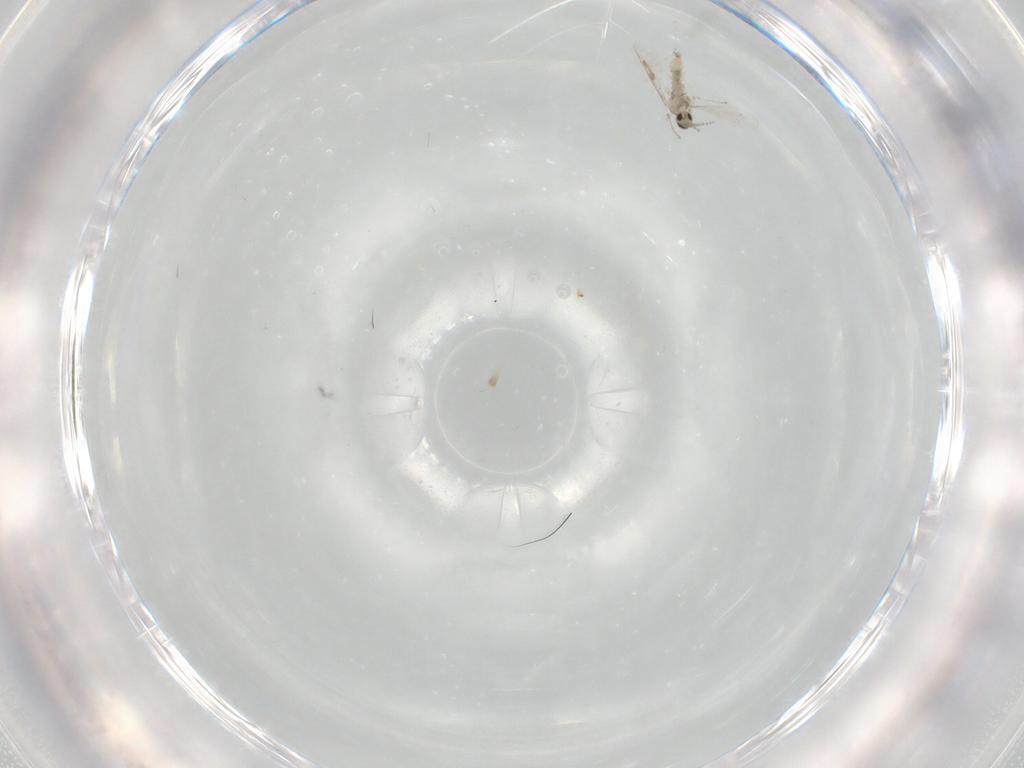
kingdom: Animalia
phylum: Arthropoda
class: Insecta
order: Diptera
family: Cecidomyiidae
